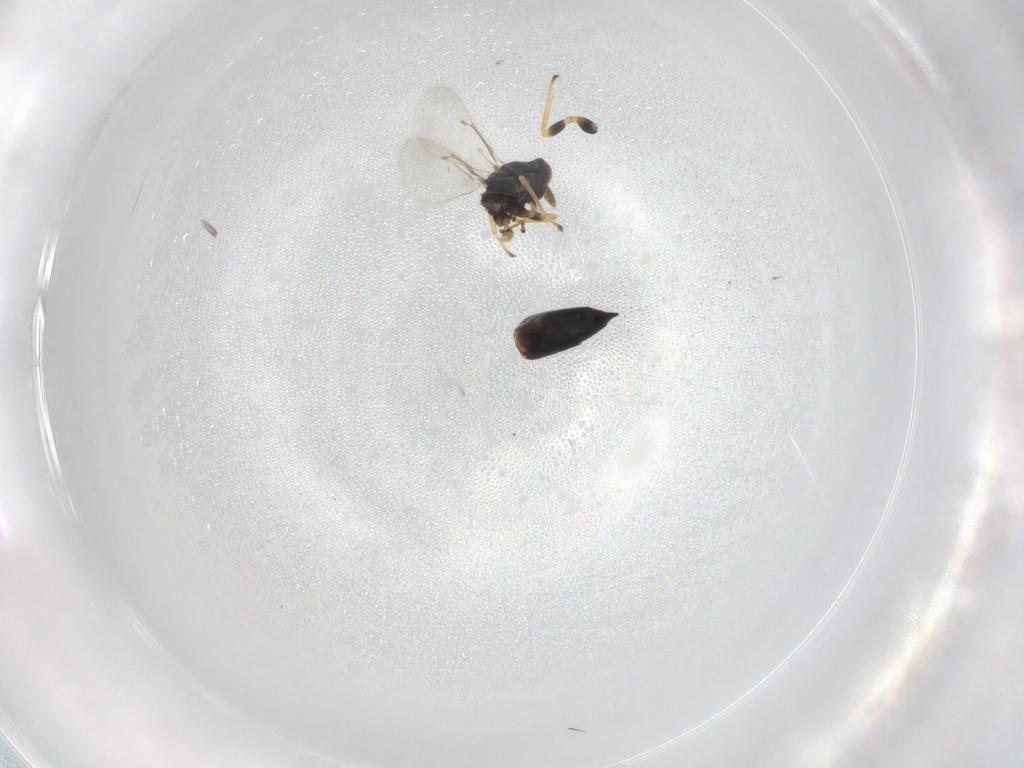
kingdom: Animalia
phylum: Arthropoda
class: Insecta
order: Hymenoptera
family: Eulophidae
